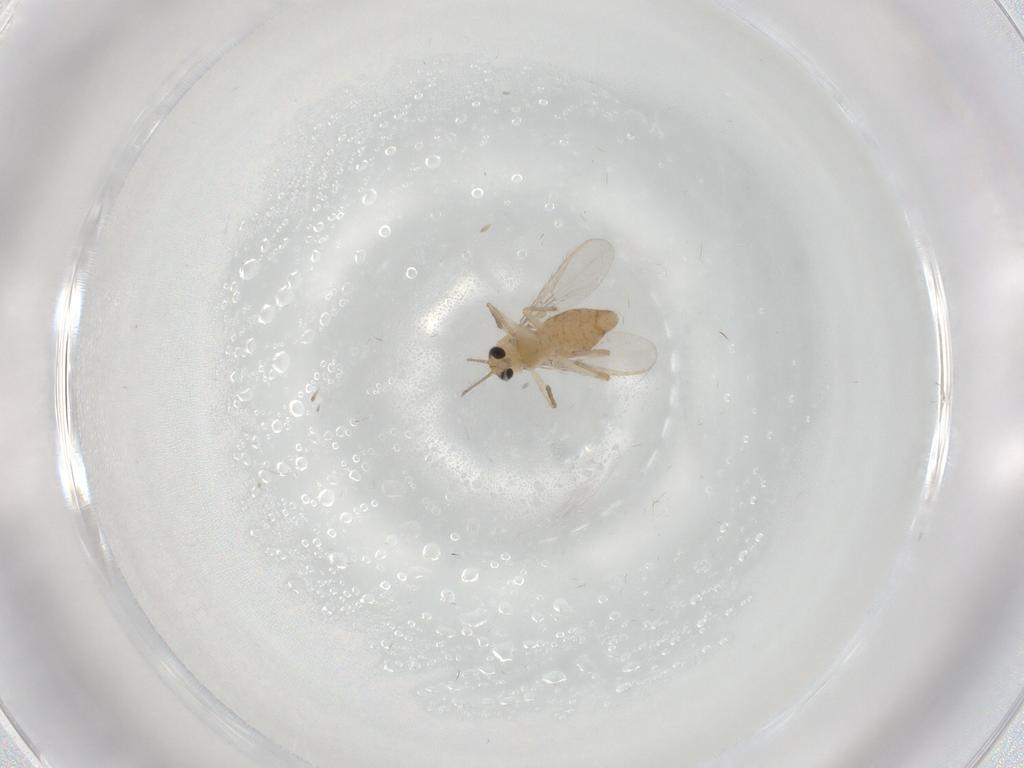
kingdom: Animalia
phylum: Arthropoda
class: Insecta
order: Diptera
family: Chironomidae
